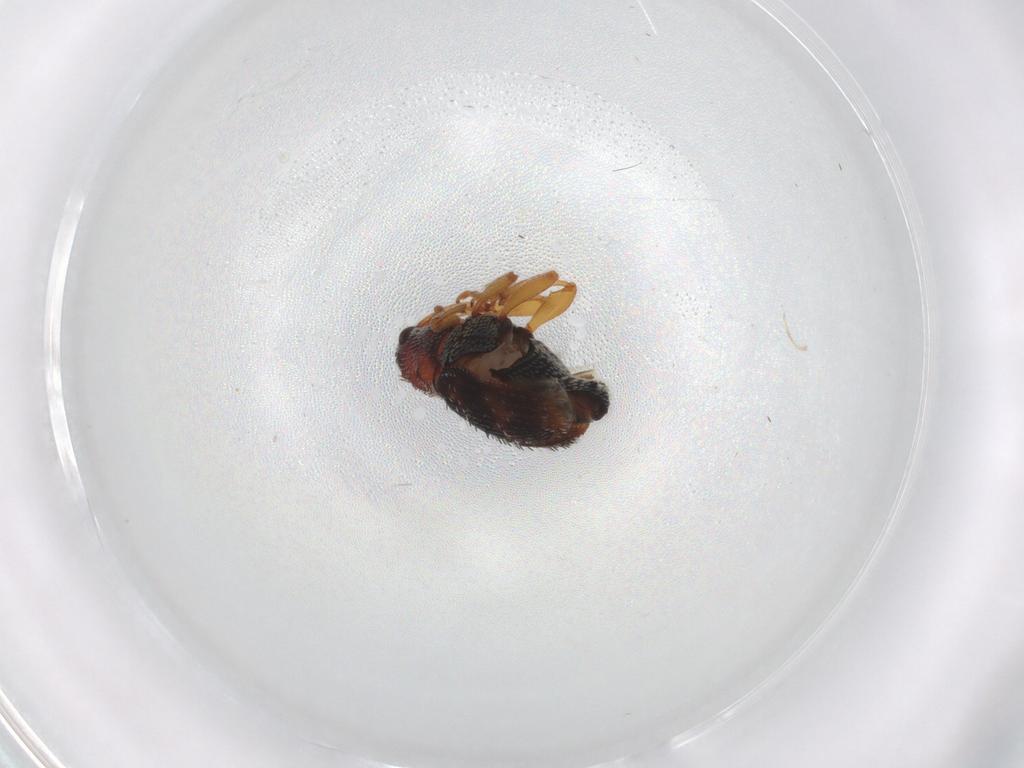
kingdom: Animalia
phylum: Arthropoda
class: Insecta
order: Coleoptera
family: Curculionidae
